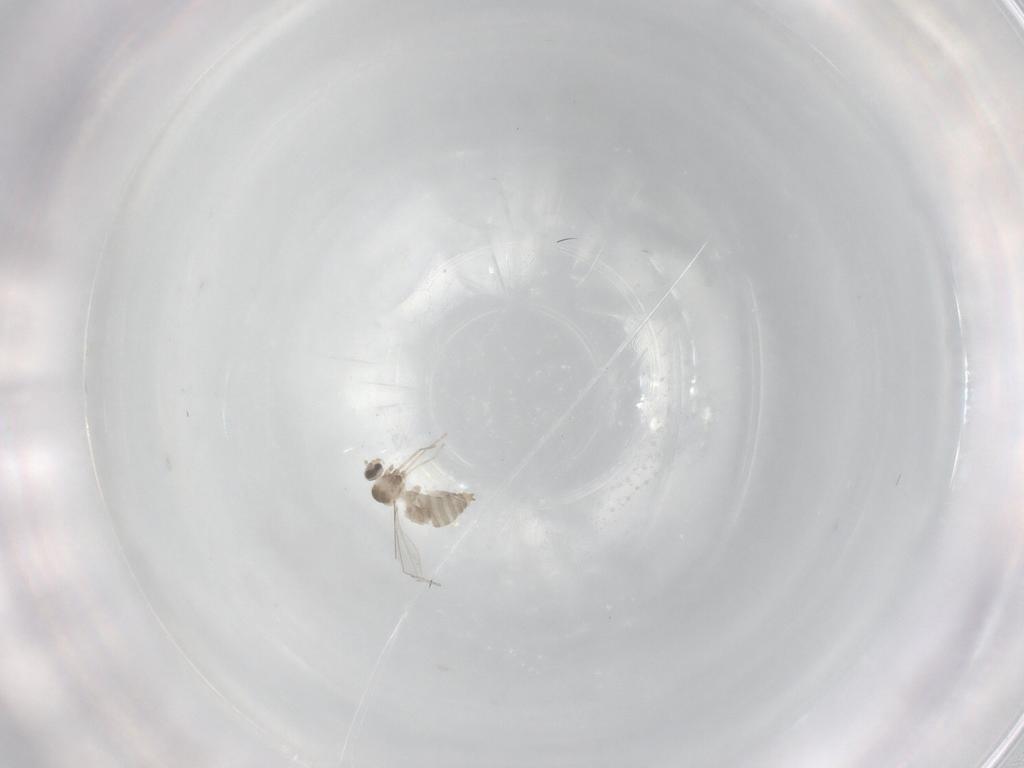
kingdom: Animalia
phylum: Arthropoda
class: Insecta
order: Diptera
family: Cecidomyiidae
